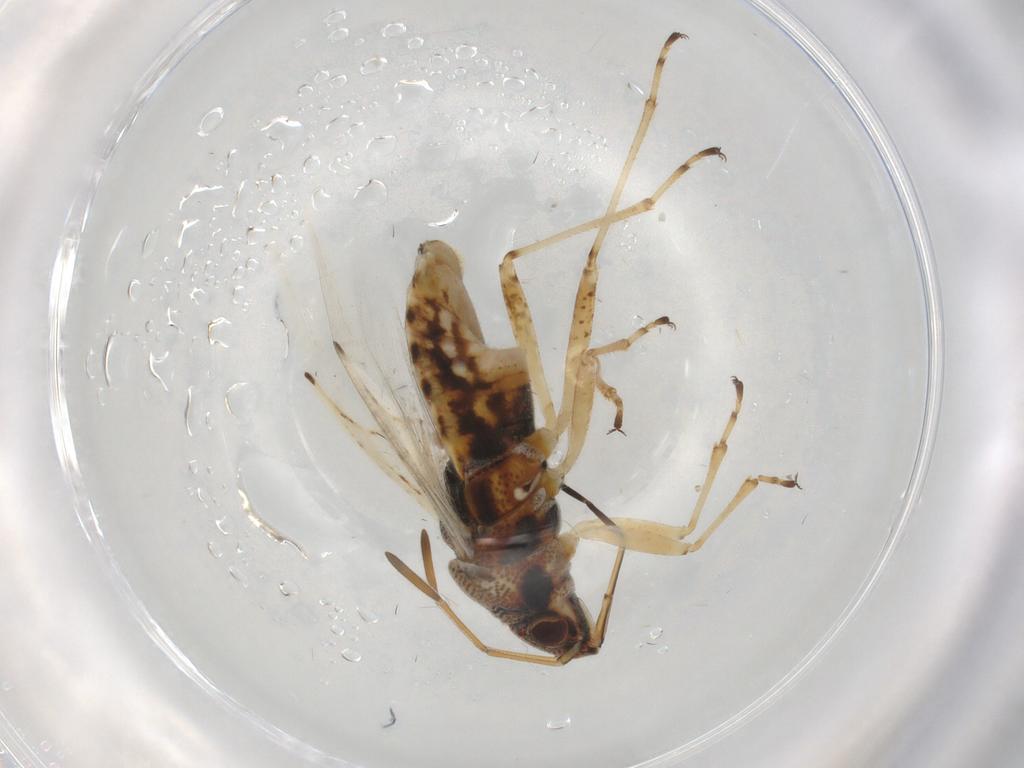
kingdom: Animalia
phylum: Arthropoda
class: Insecta
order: Hemiptera
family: Lygaeidae
